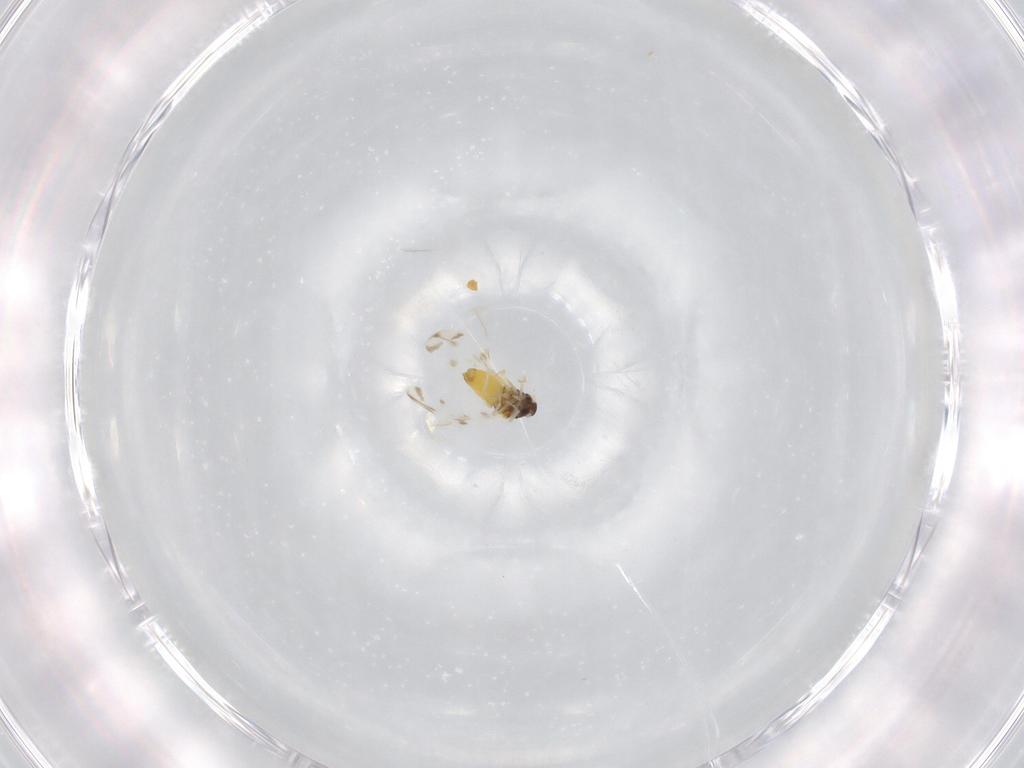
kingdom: Animalia
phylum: Arthropoda
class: Insecta
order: Hemiptera
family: Aleyrodidae
